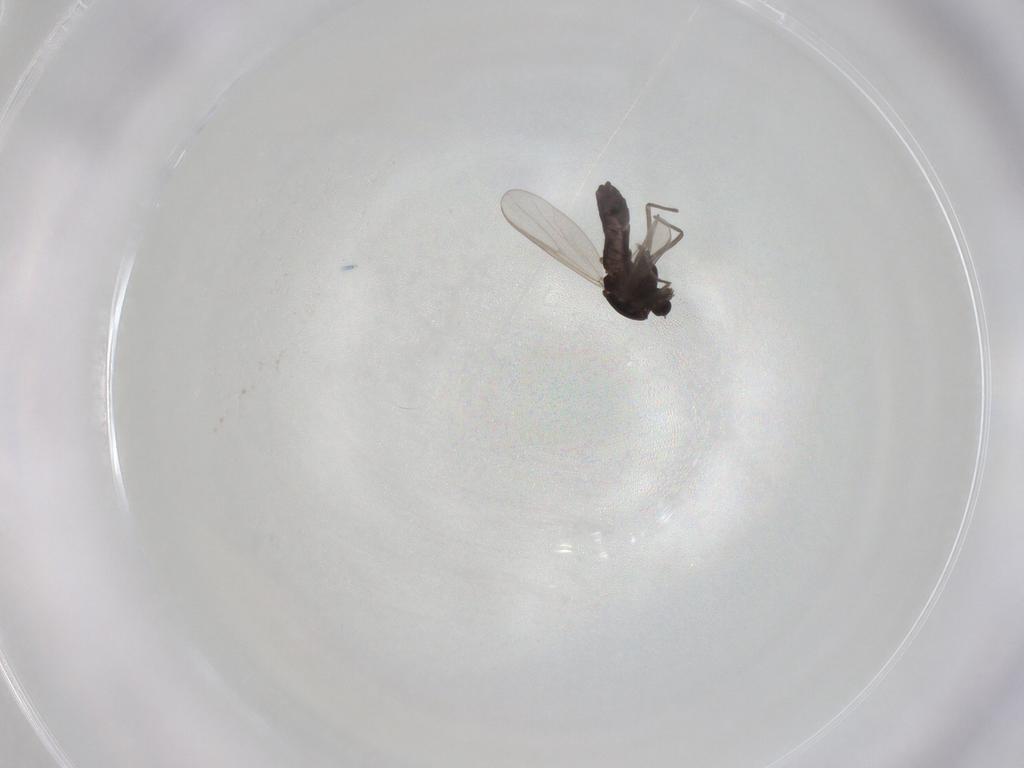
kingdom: Animalia
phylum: Arthropoda
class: Insecta
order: Diptera
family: Chironomidae
